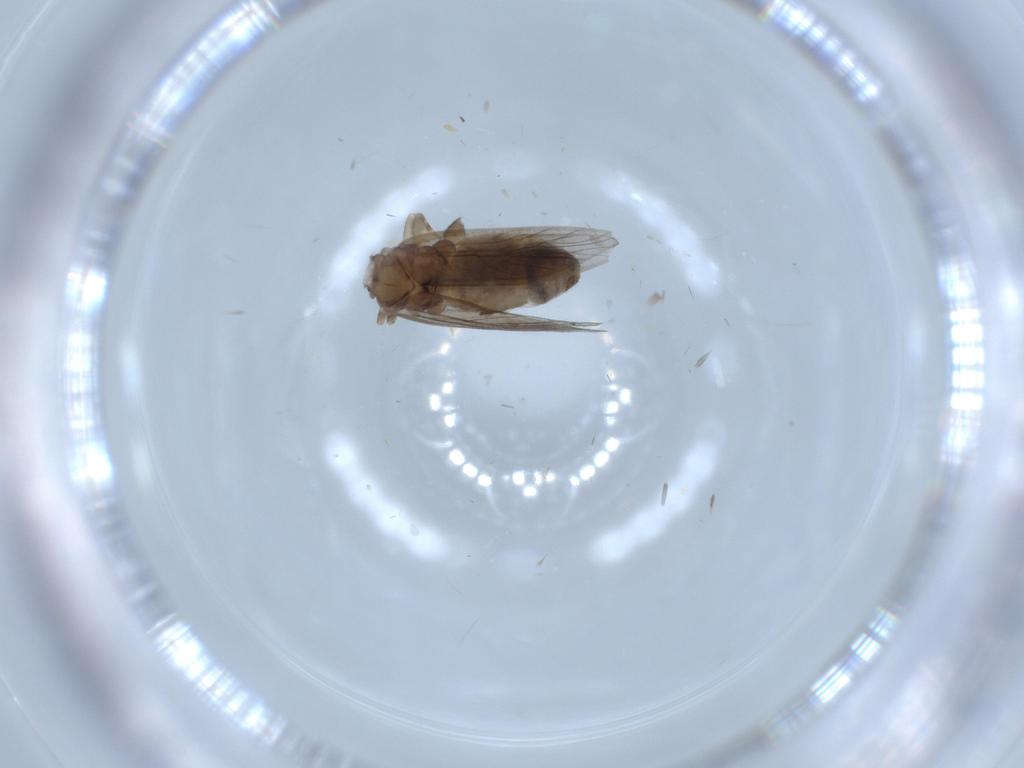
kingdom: Animalia
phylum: Arthropoda
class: Insecta
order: Psocodea
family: Lepidopsocidae
